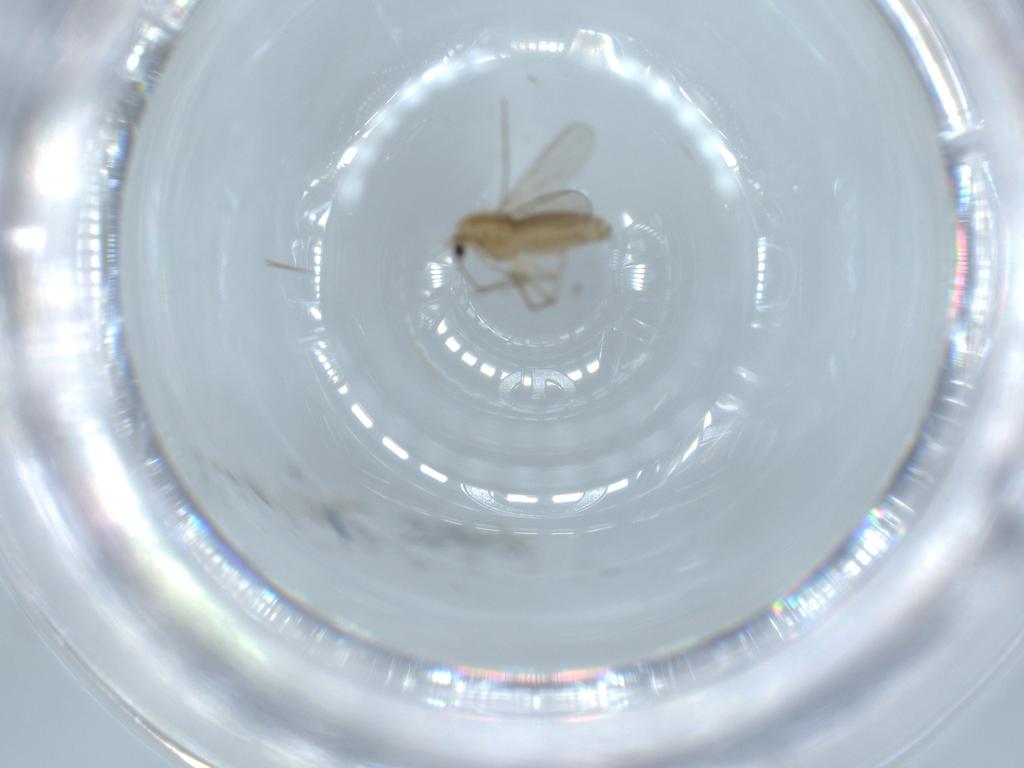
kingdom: Animalia
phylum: Arthropoda
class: Insecta
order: Diptera
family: Chironomidae
